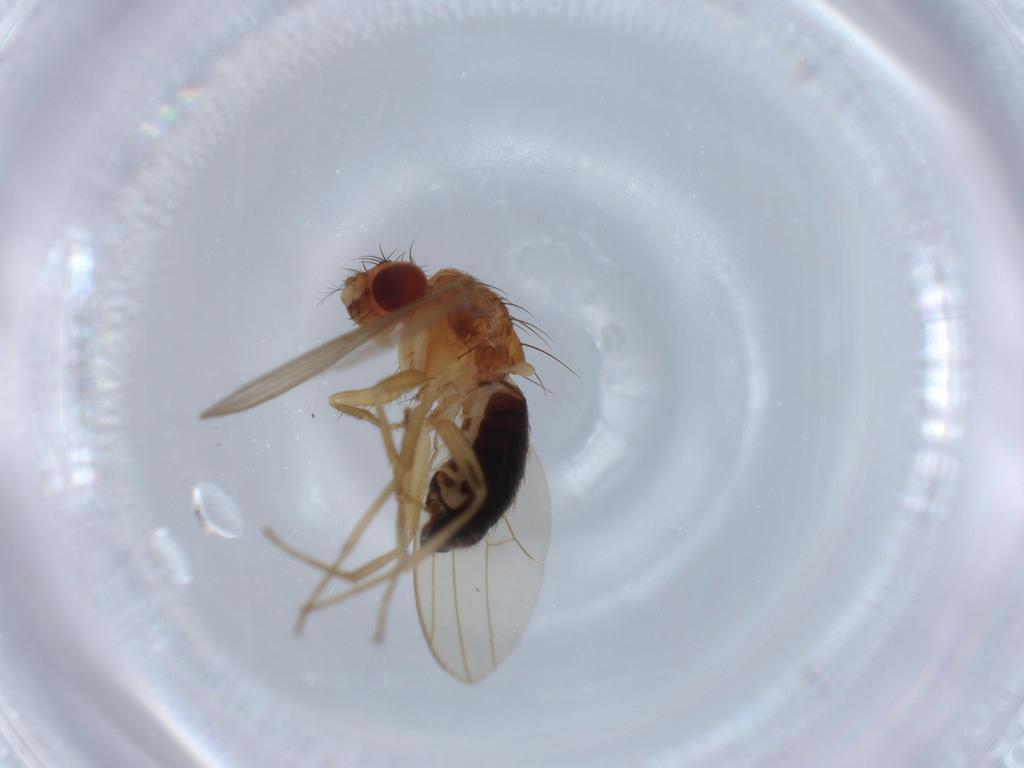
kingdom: Animalia
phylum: Arthropoda
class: Insecta
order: Diptera
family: Drosophilidae
